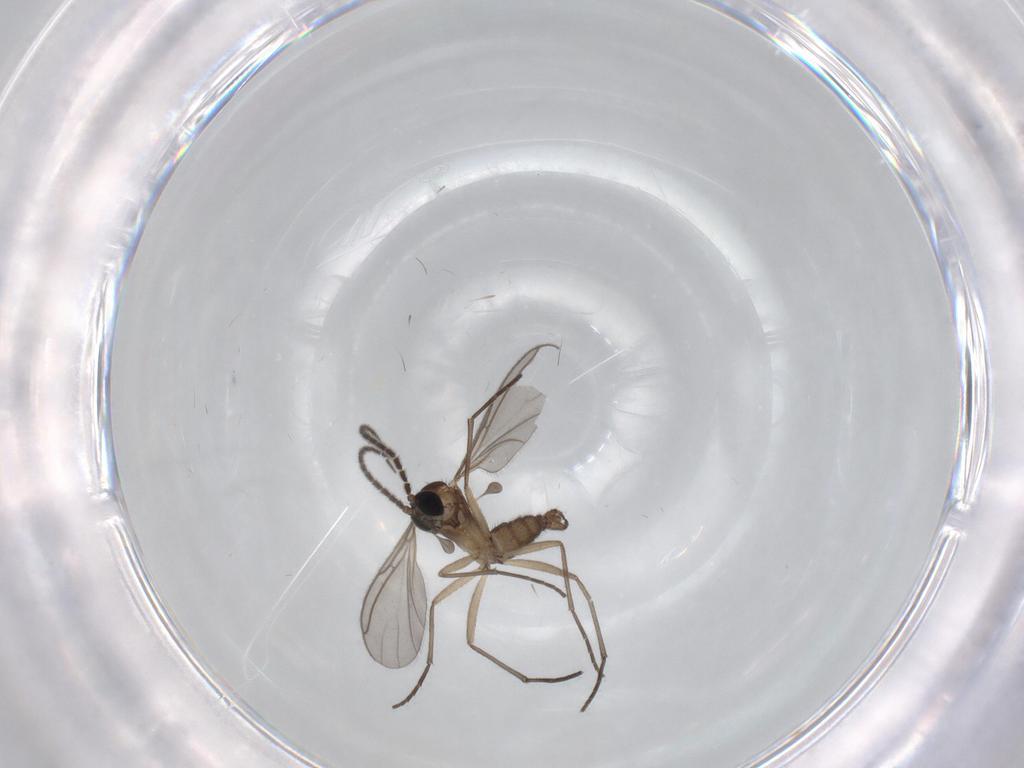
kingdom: Animalia
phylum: Arthropoda
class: Insecta
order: Diptera
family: Sciaridae
